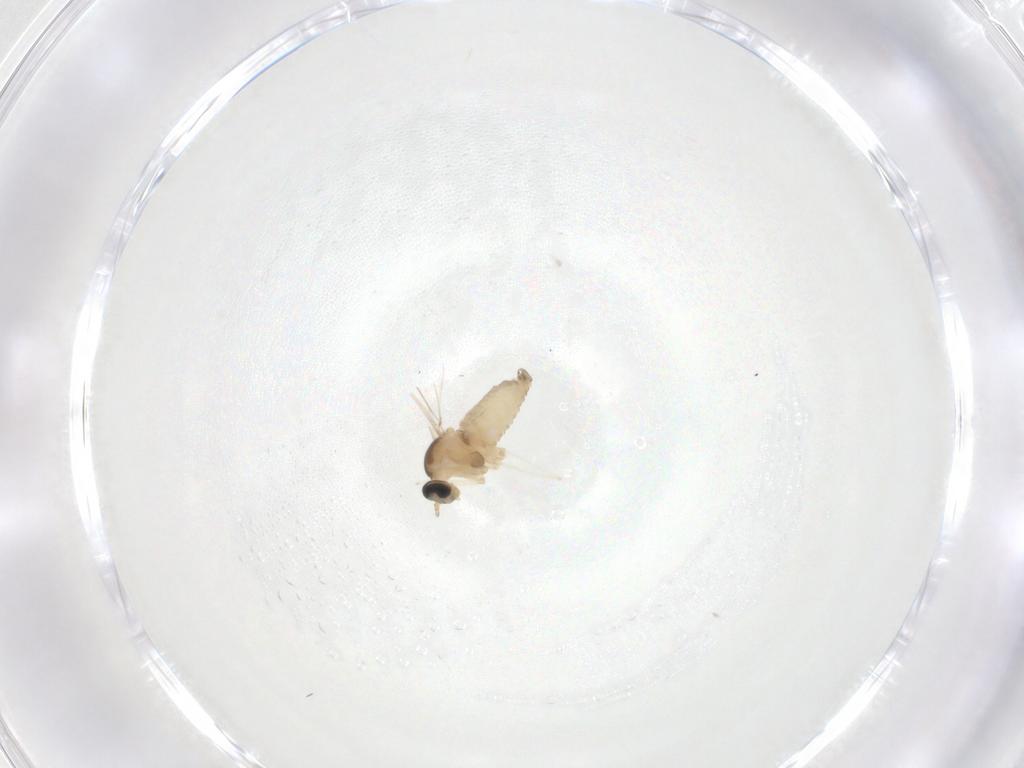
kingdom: Animalia
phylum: Arthropoda
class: Insecta
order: Diptera
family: Cecidomyiidae
